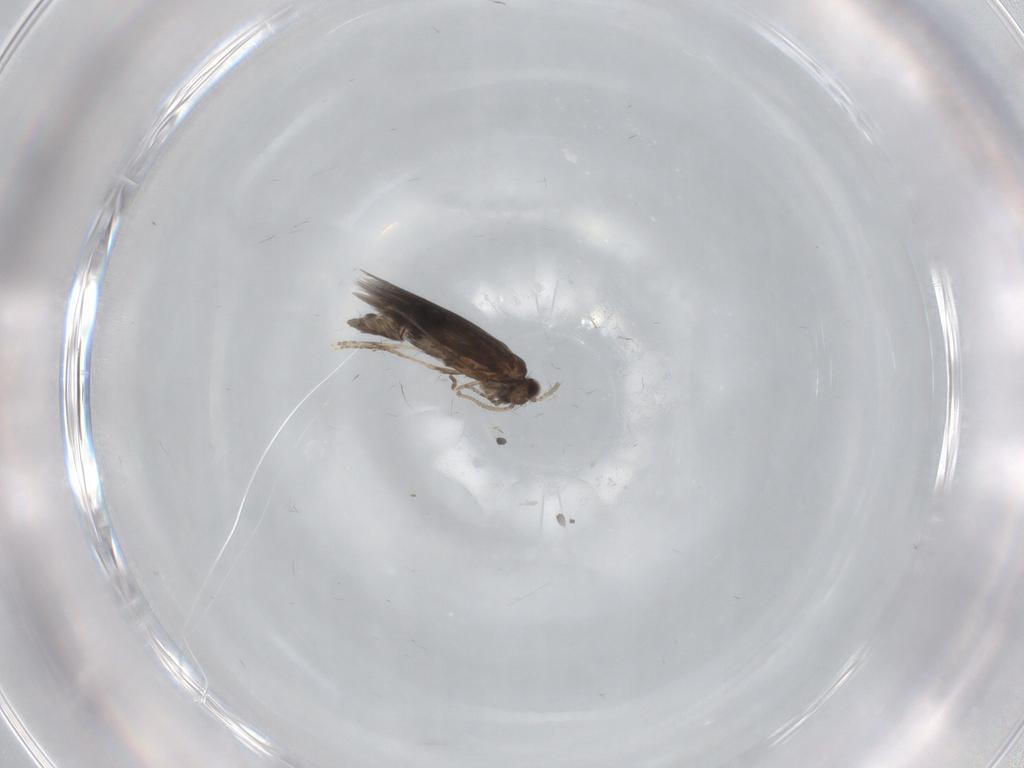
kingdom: Animalia
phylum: Arthropoda
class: Insecta
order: Trichoptera
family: Hydroptilidae
